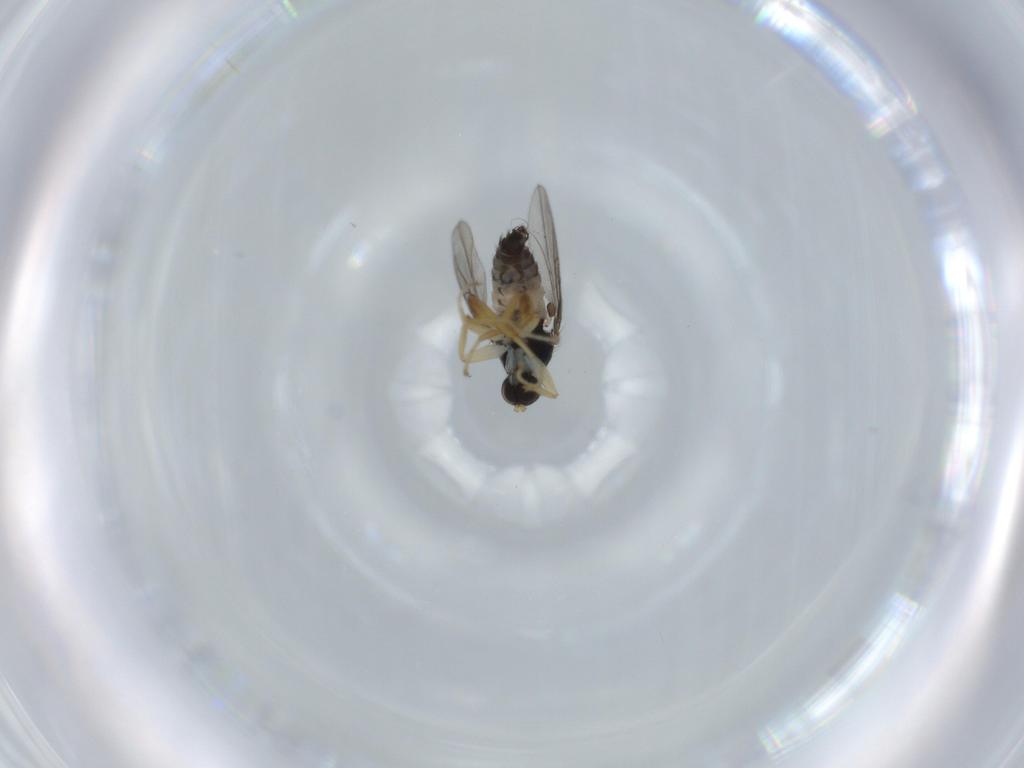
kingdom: Animalia
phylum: Arthropoda
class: Insecta
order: Diptera
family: Hybotidae
